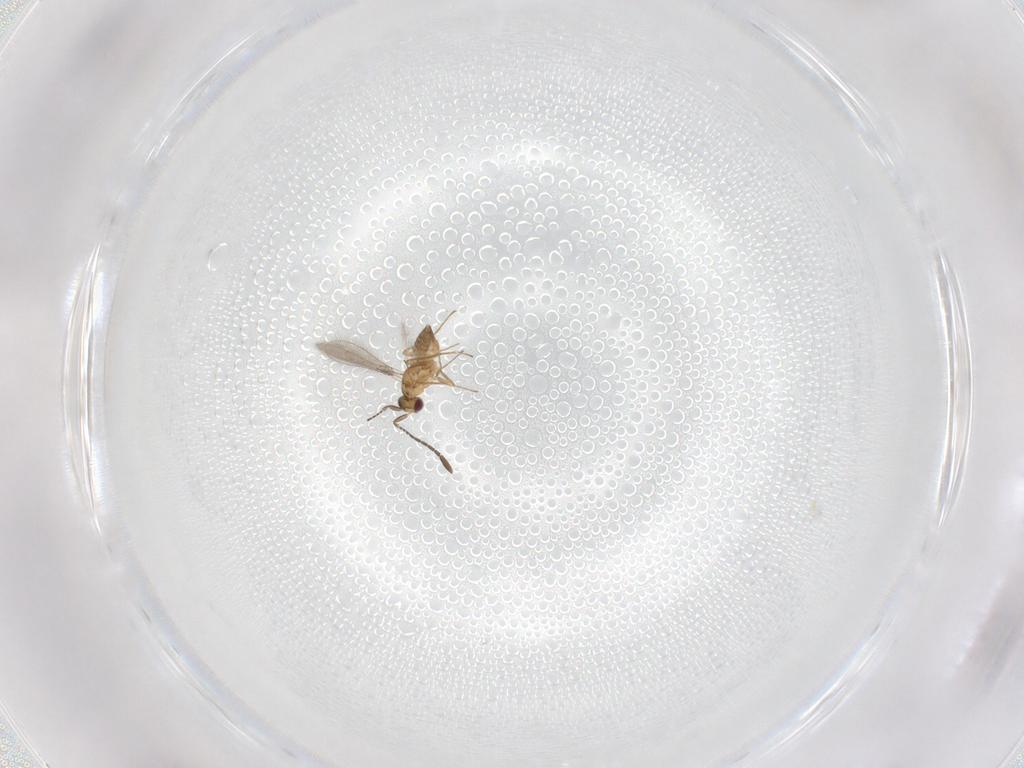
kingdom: Animalia
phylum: Arthropoda
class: Insecta
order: Hymenoptera
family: Mymaridae
